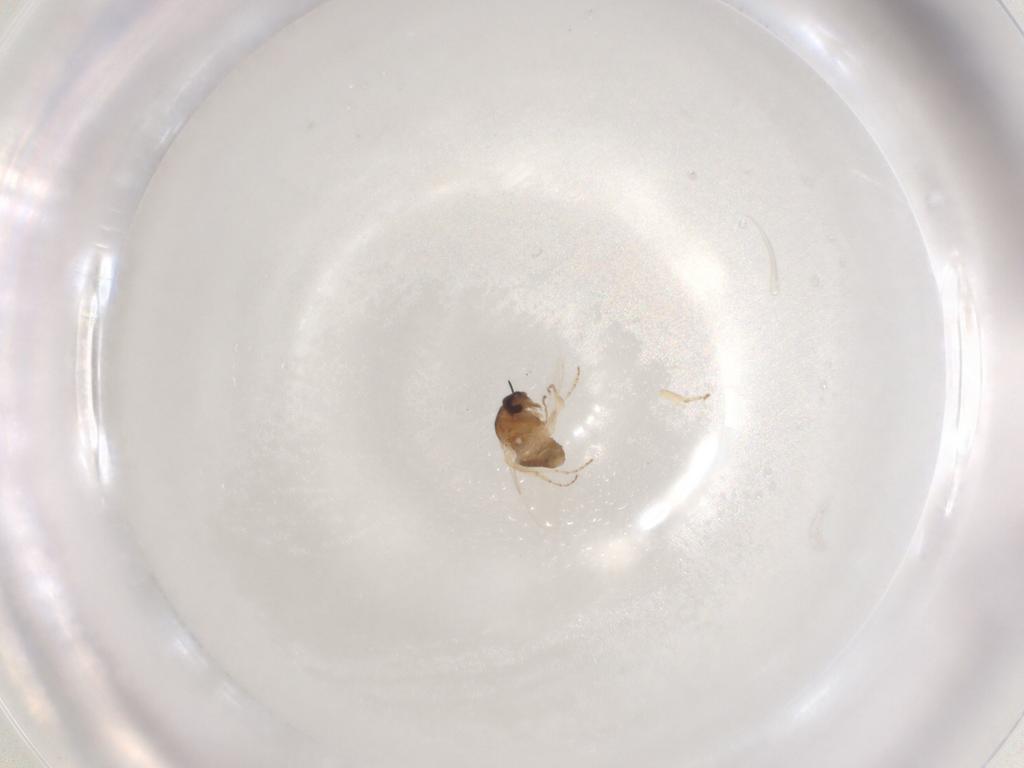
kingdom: Animalia
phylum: Arthropoda
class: Insecta
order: Diptera
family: Ceratopogonidae
